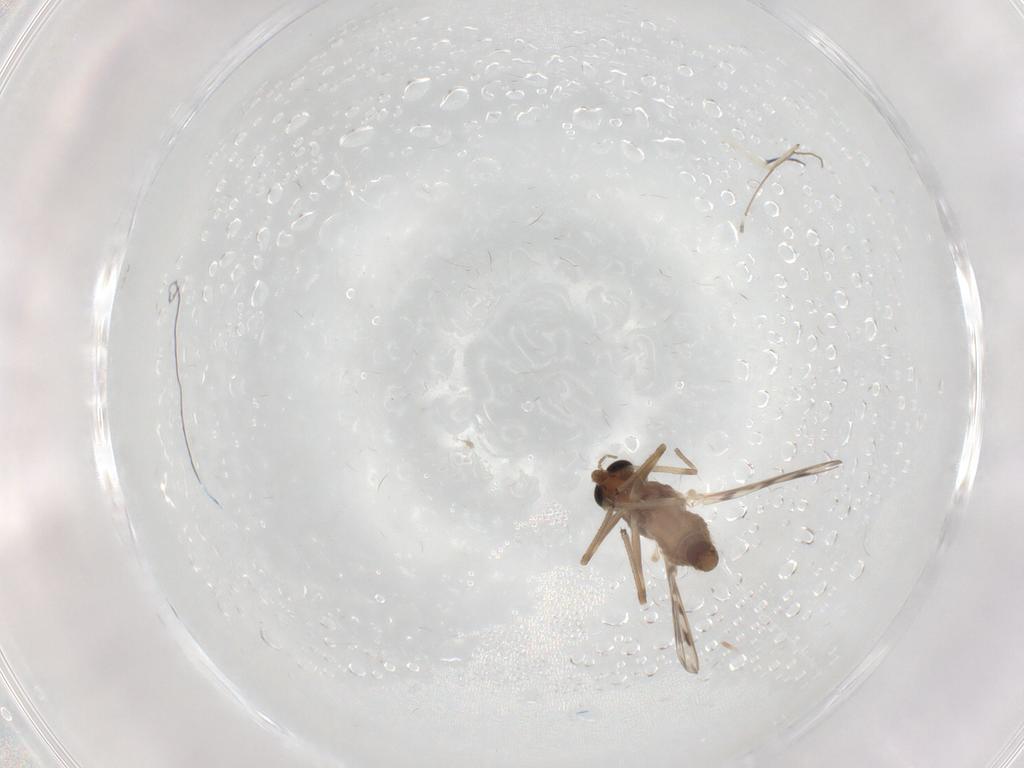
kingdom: Animalia
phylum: Arthropoda
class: Insecta
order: Diptera
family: Chironomidae
